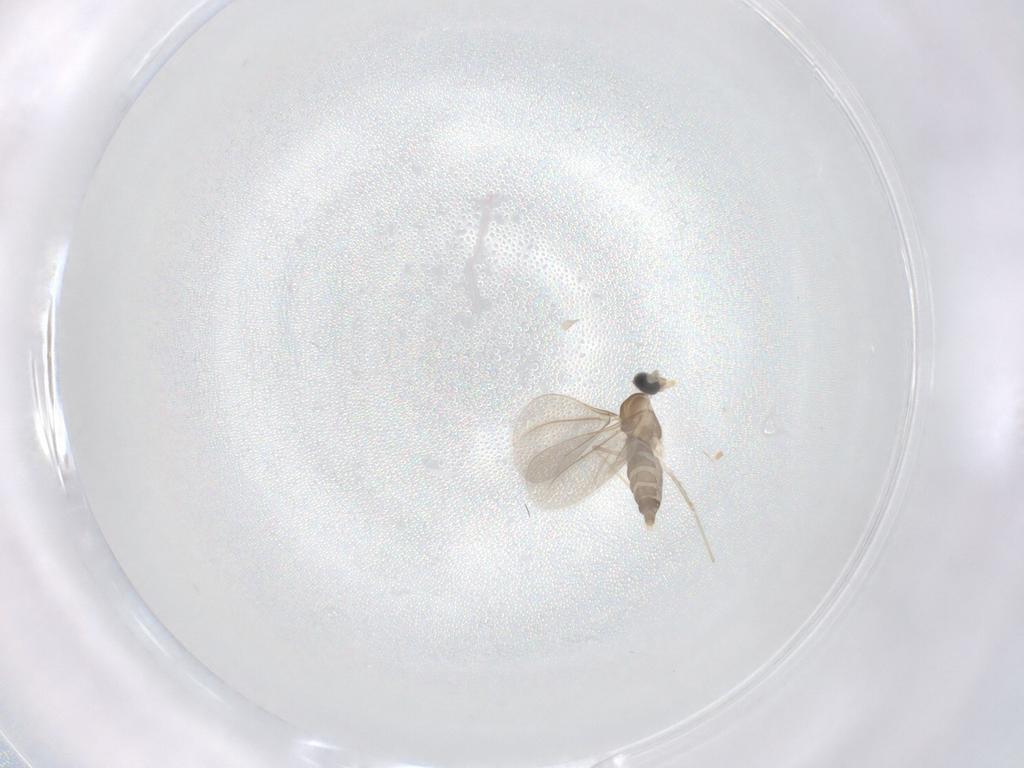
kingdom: Animalia
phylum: Arthropoda
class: Insecta
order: Diptera
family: Cecidomyiidae
